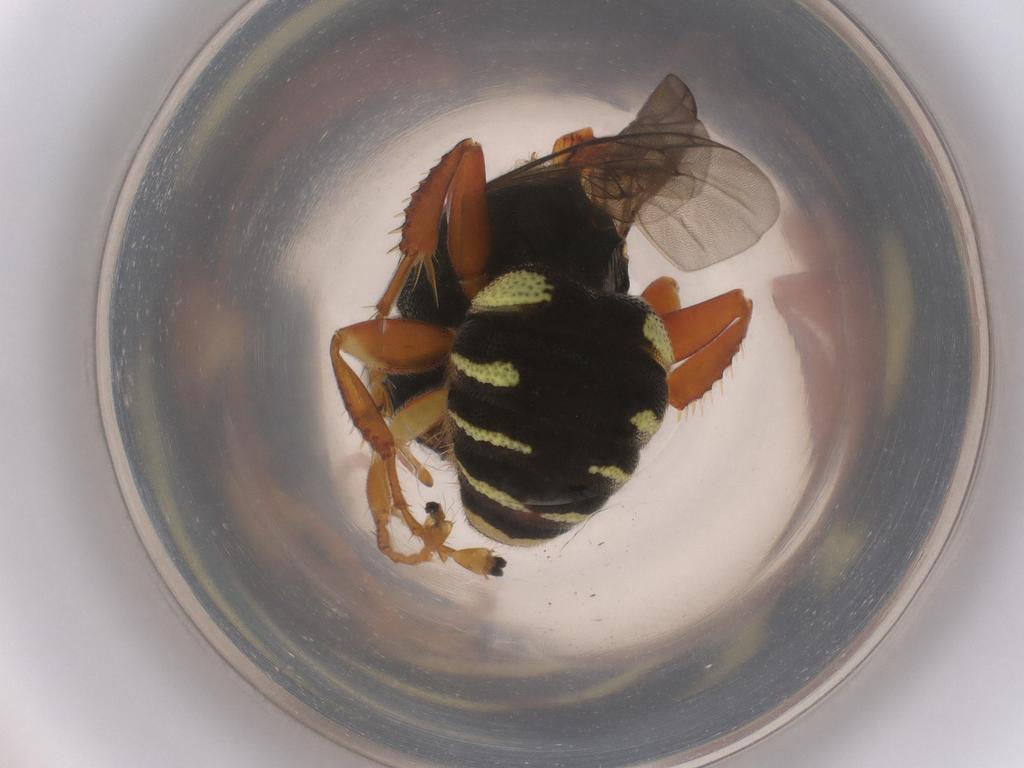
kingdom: Animalia
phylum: Arthropoda
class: Insecta
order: Hymenoptera
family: Crabronidae
